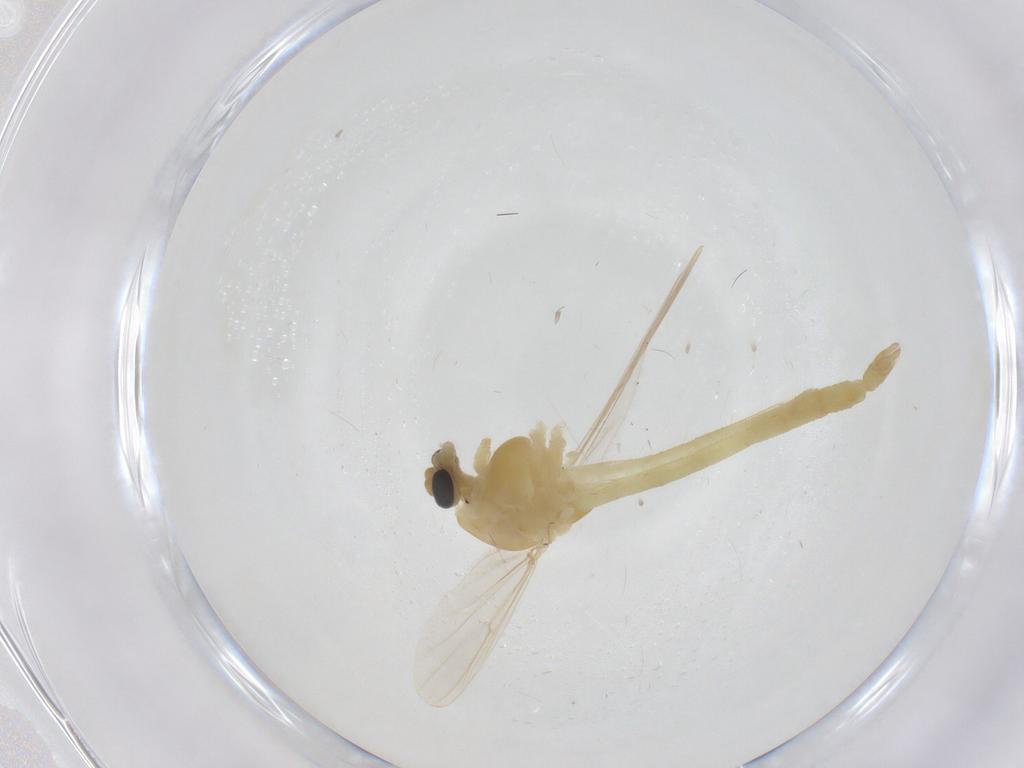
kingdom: Animalia
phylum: Arthropoda
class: Insecta
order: Diptera
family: Chironomidae
